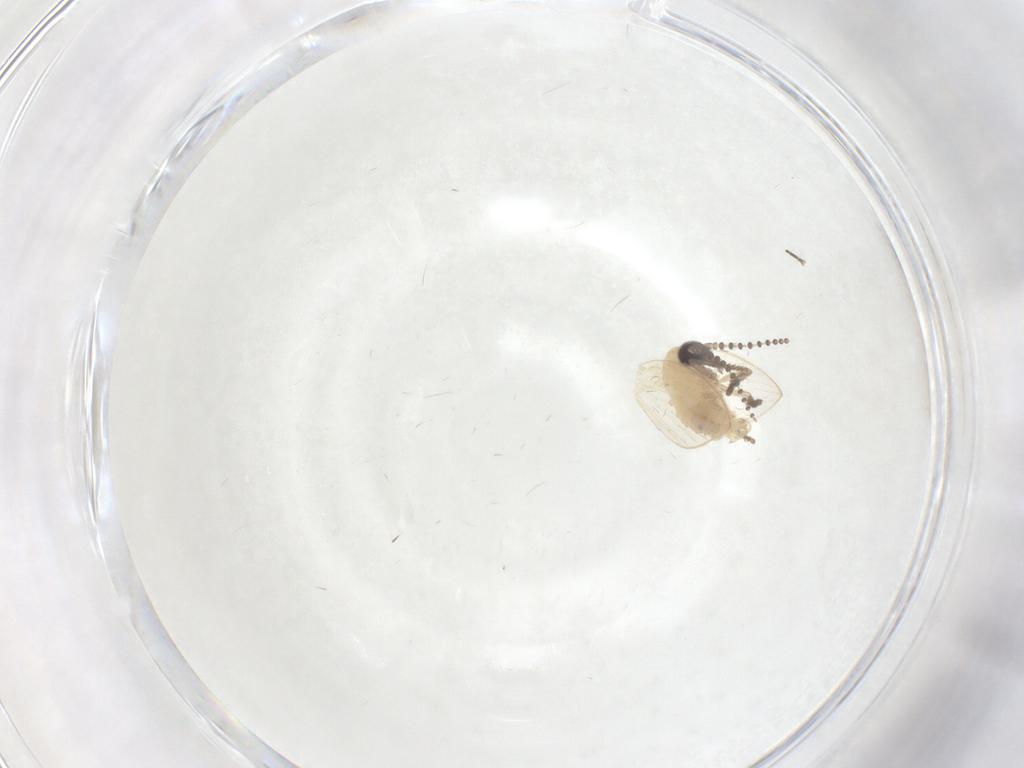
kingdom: Animalia
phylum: Arthropoda
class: Insecta
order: Diptera
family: Psychodidae
